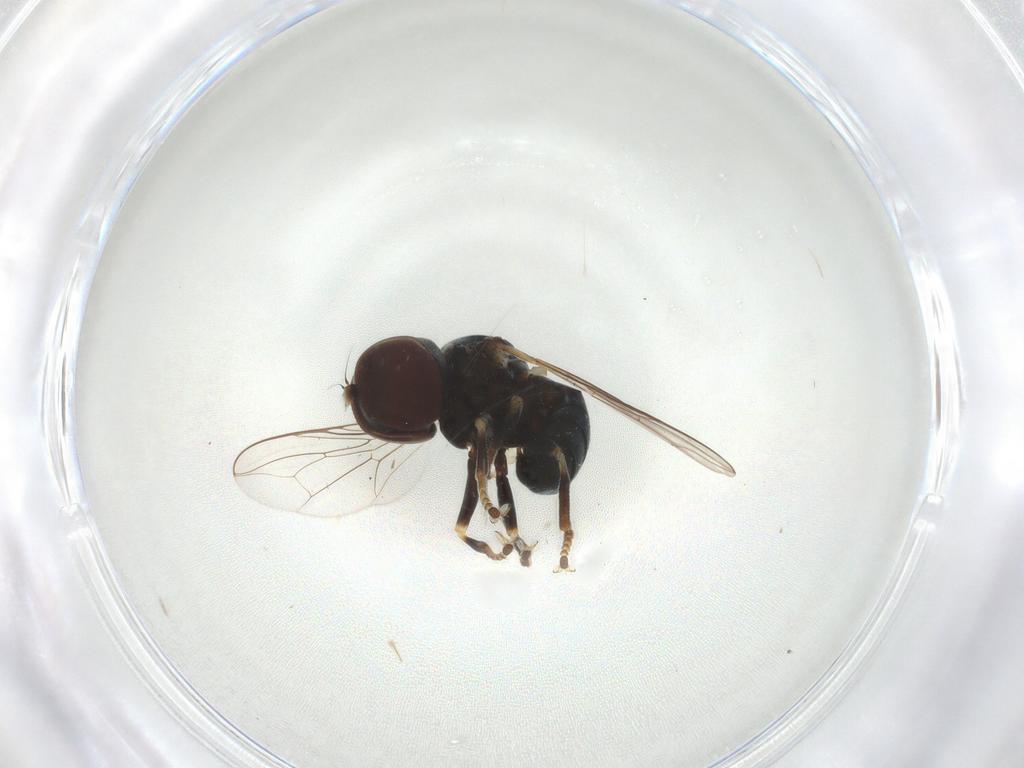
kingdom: Animalia
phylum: Arthropoda
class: Insecta
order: Diptera
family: Pipunculidae
